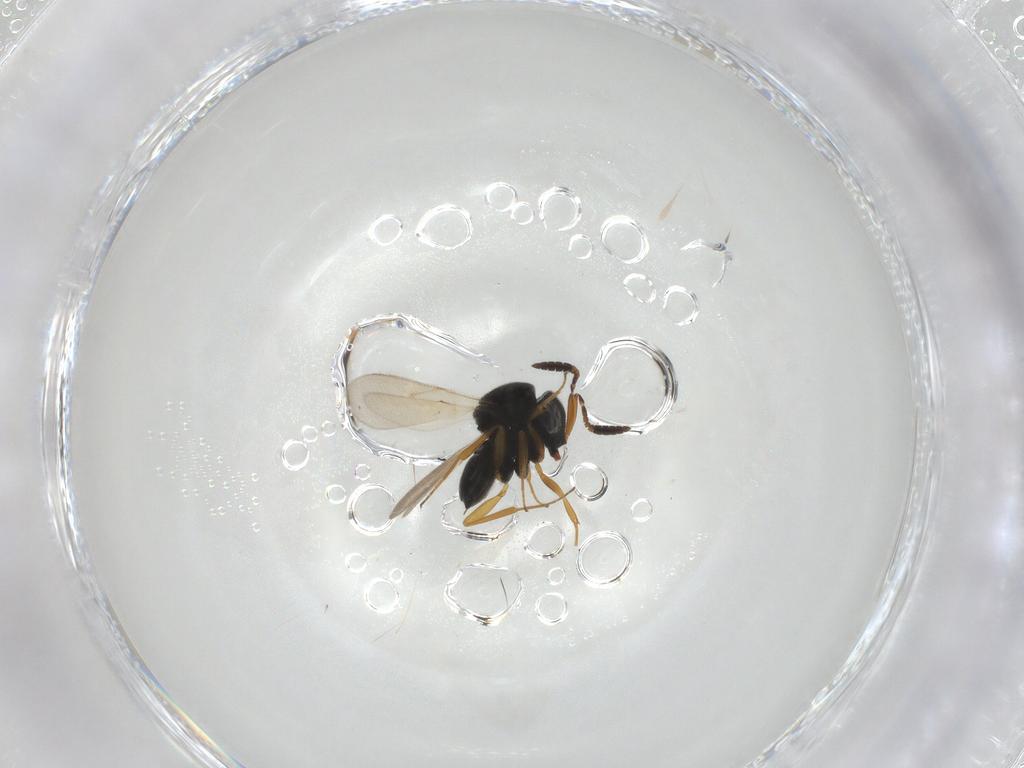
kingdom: Animalia
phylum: Arthropoda
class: Insecta
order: Hymenoptera
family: Scelionidae
